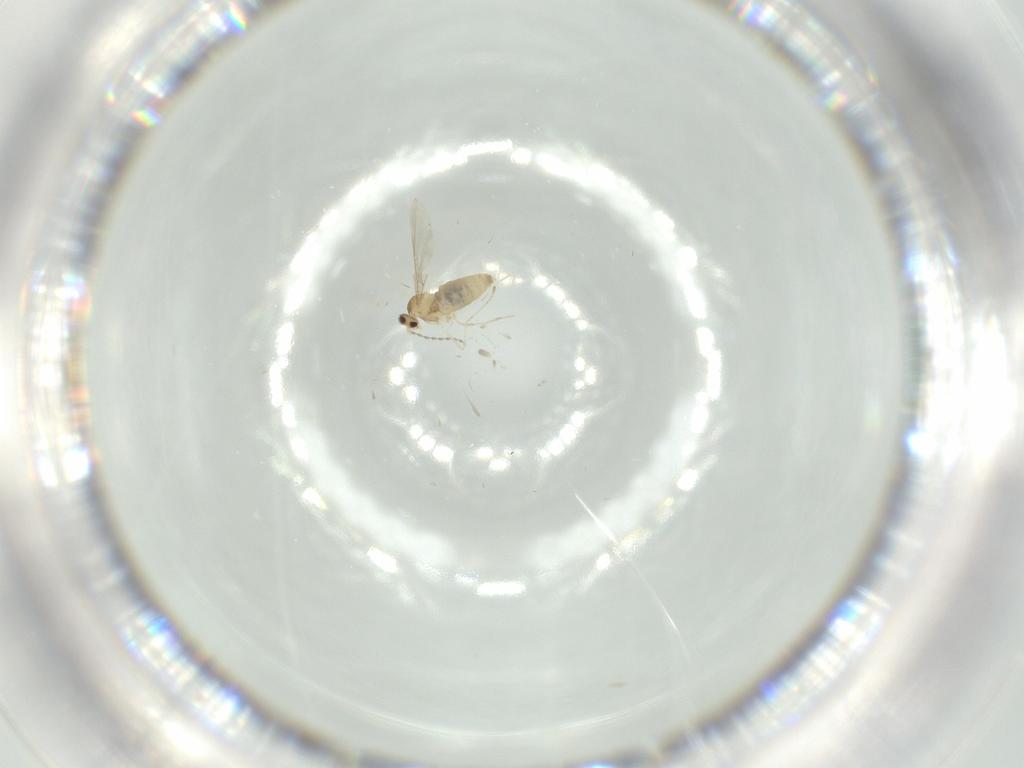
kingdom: Animalia
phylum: Arthropoda
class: Insecta
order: Diptera
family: Cecidomyiidae
